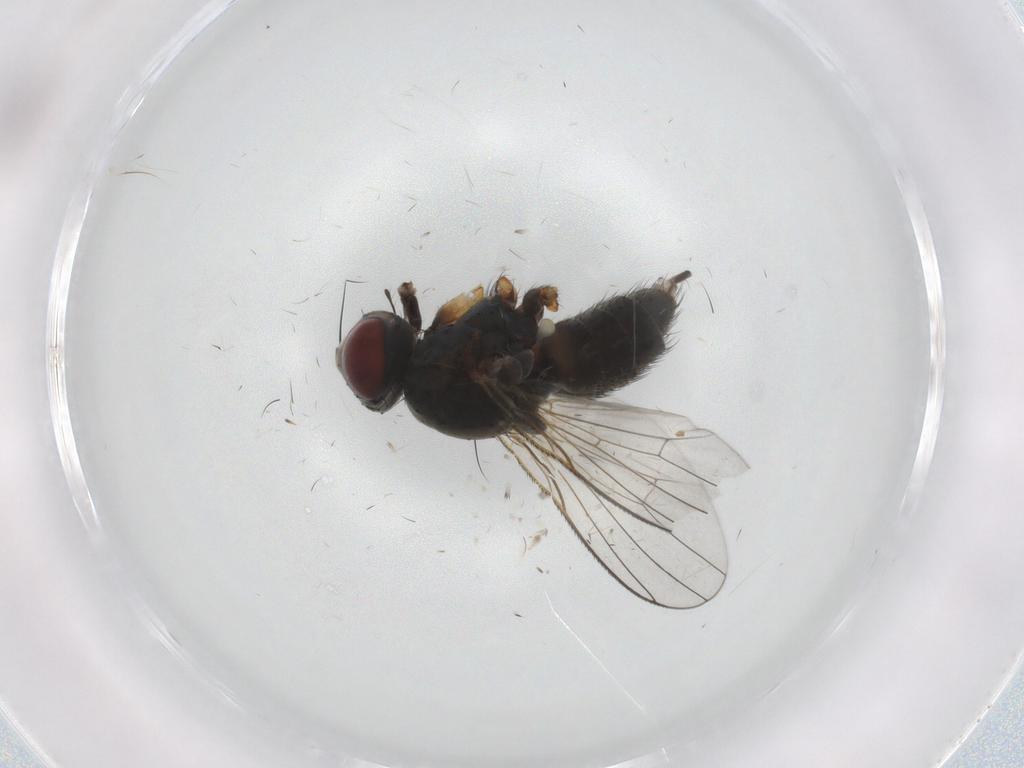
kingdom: Animalia
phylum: Arthropoda
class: Insecta
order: Diptera
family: Muscidae
